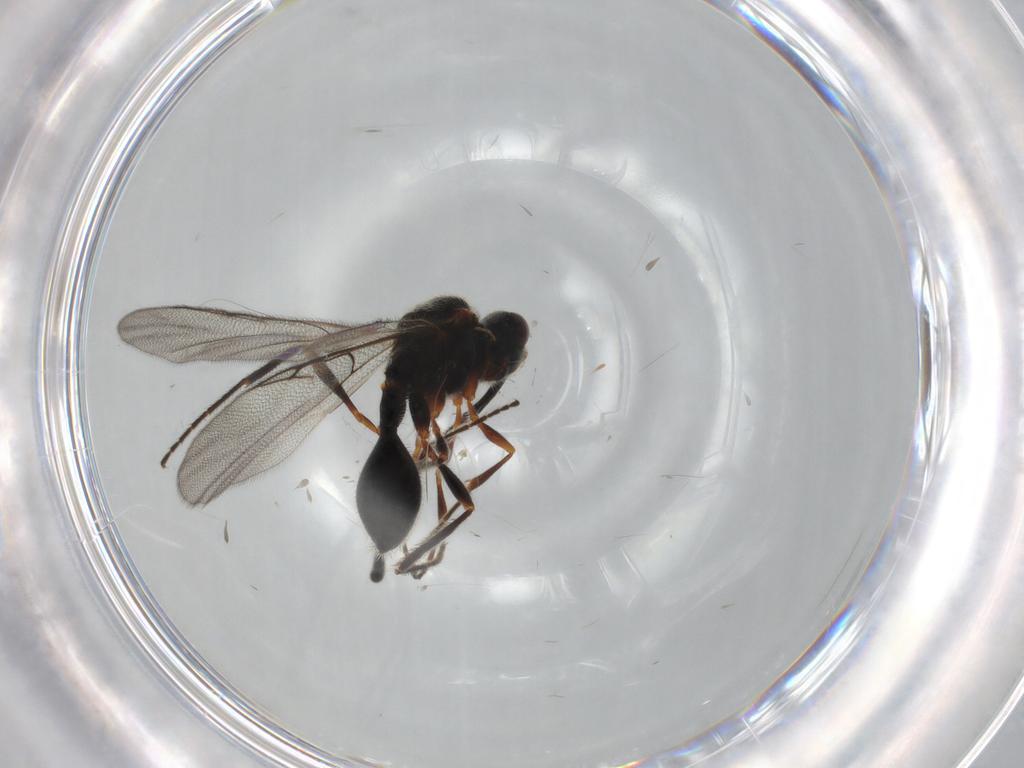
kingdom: Animalia
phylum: Arthropoda
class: Insecta
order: Hymenoptera
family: Diapriidae
